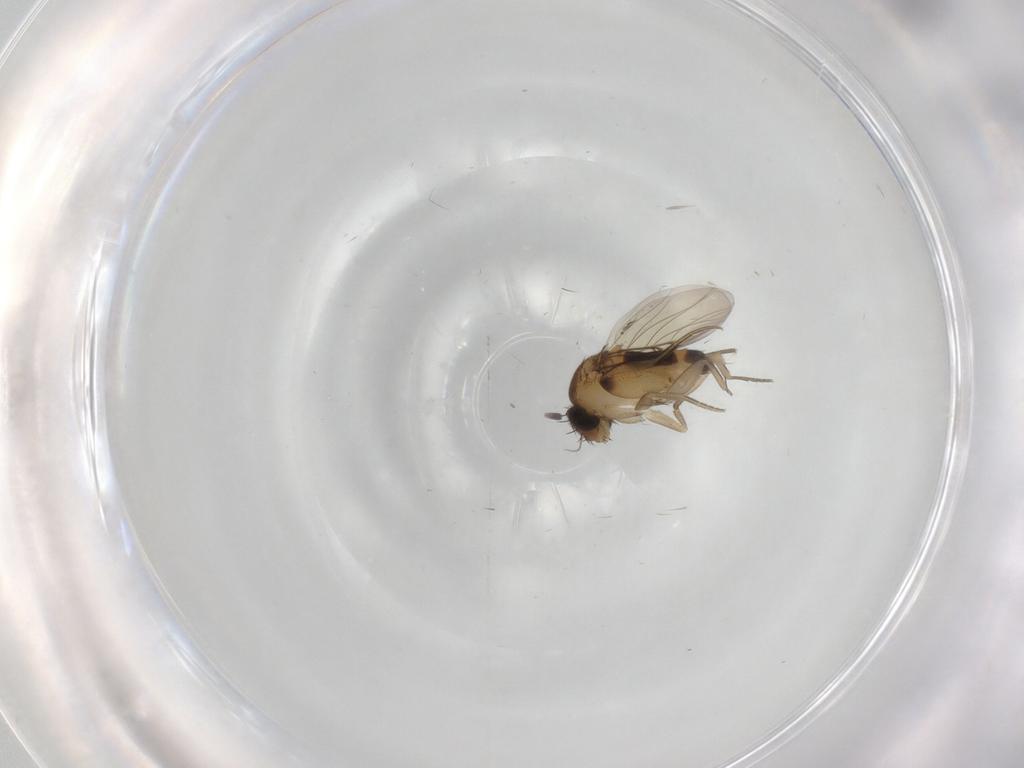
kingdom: Animalia
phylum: Arthropoda
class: Insecta
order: Diptera
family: Phoridae
